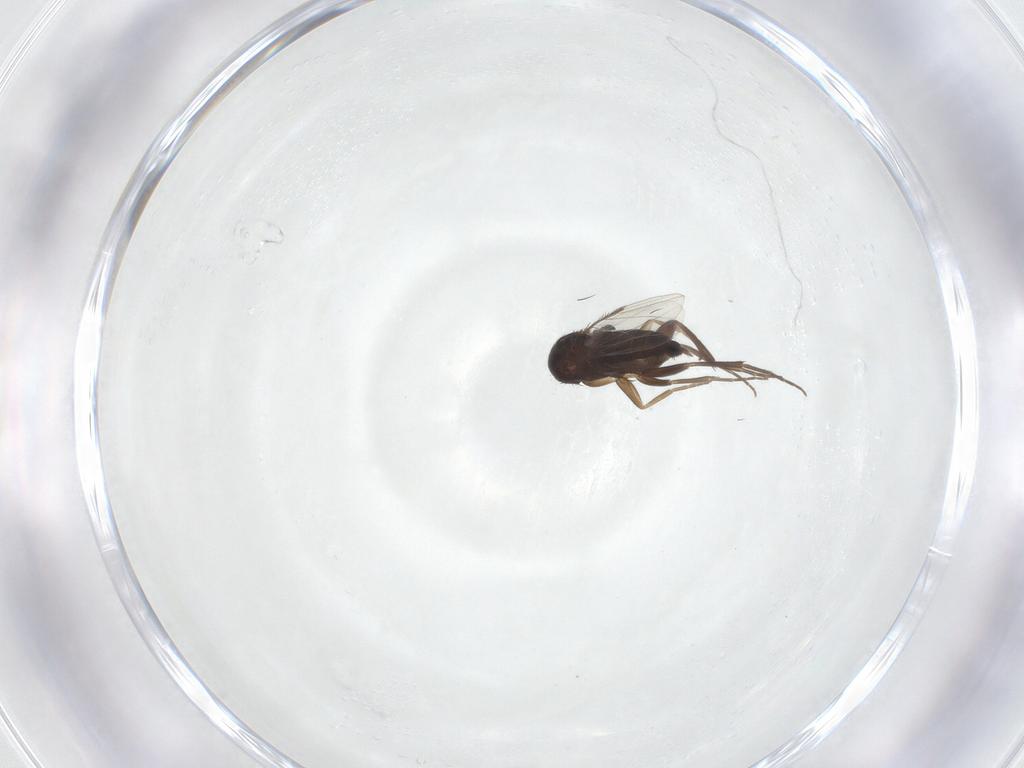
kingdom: Animalia
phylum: Arthropoda
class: Insecta
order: Diptera
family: Phoridae
